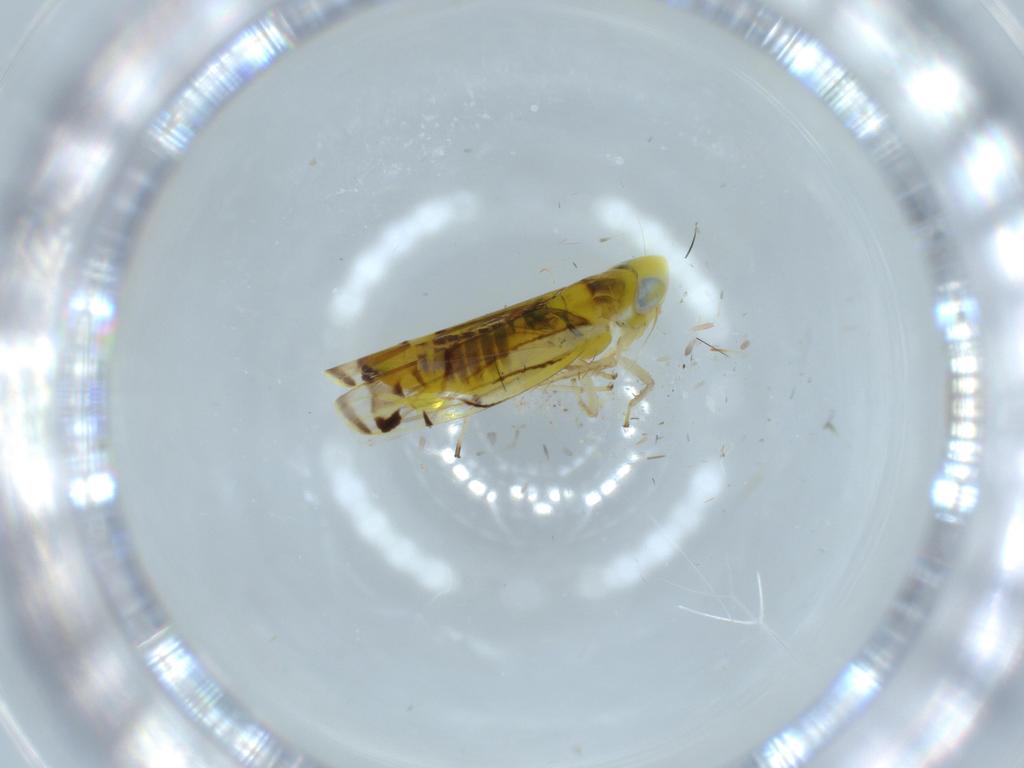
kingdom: Animalia
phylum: Arthropoda
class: Insecta
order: Hemiptera
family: Cicadellidae
